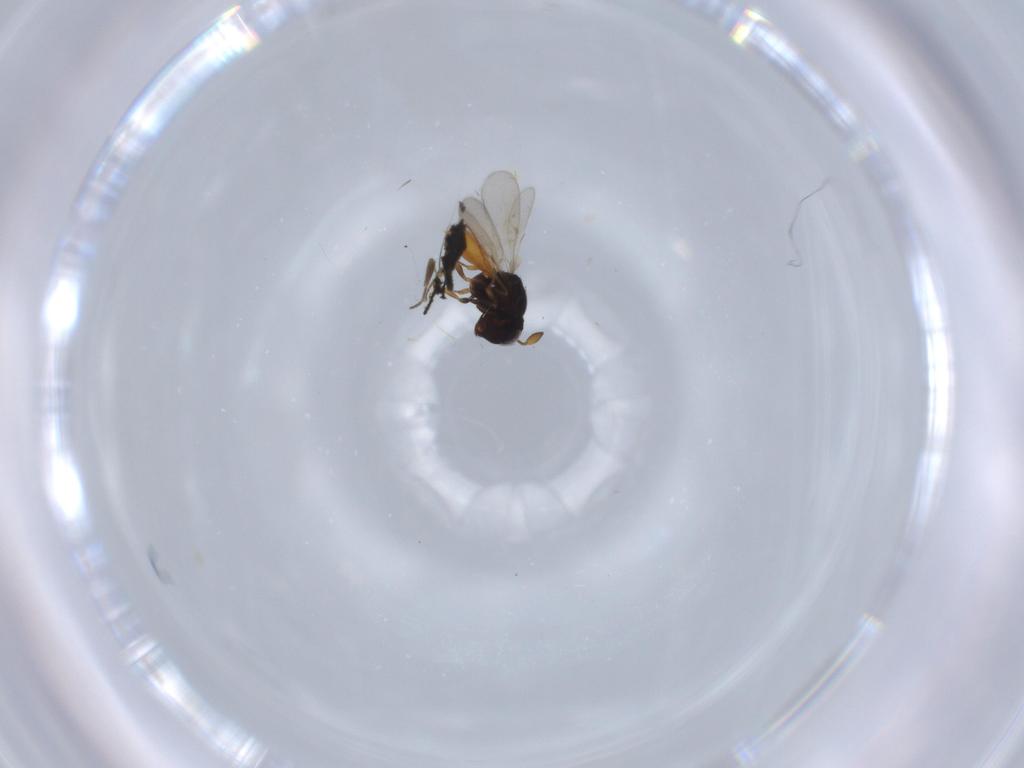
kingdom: Animalia
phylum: Arthropoda
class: Insecta
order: Hymenoptera
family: Scelionidae
